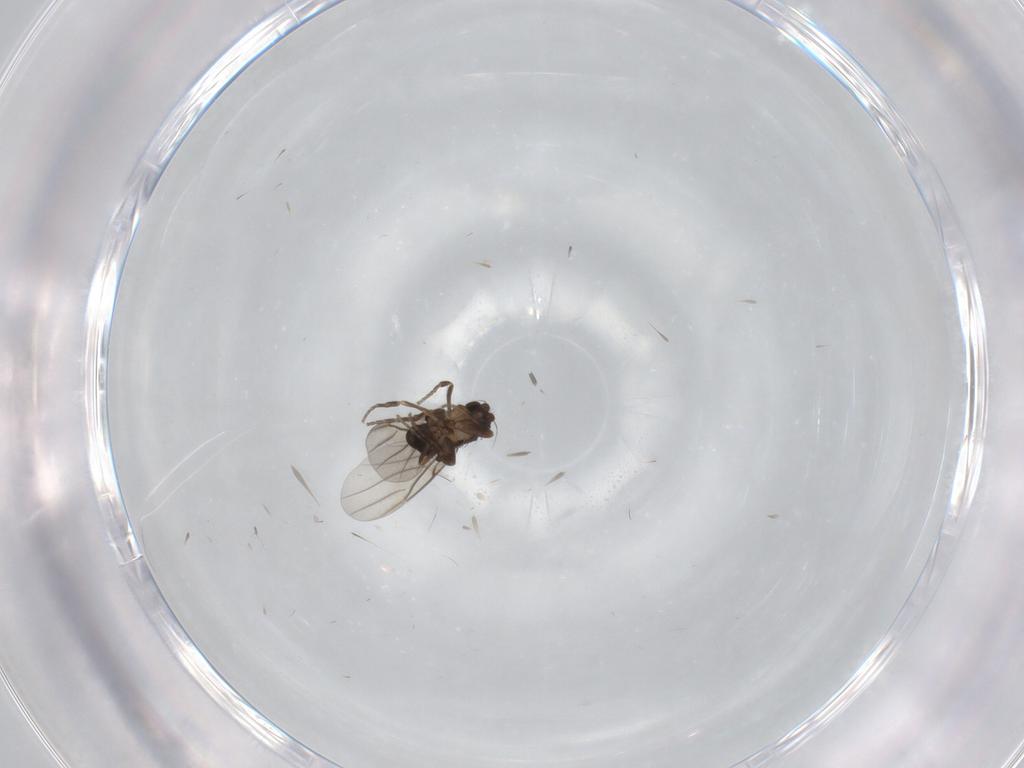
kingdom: Animalia
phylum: Arthropoda
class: Insecta
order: Diptera
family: Phoridae
